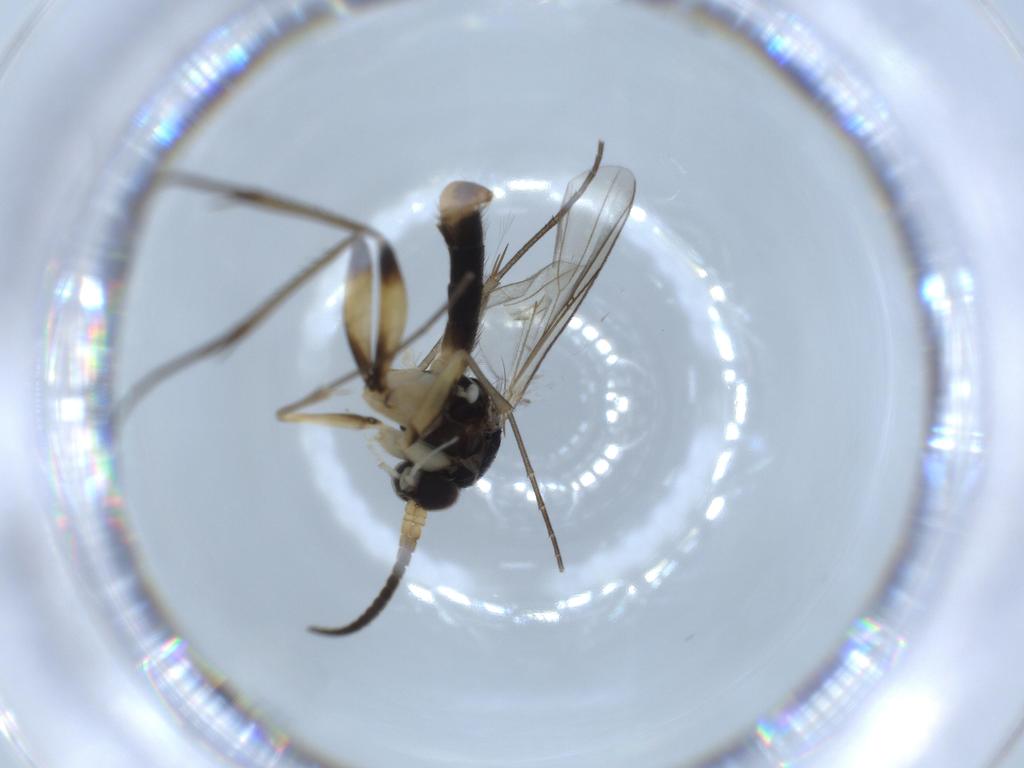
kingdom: Animalia
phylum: Arthropoda
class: Insecta
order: Diptera
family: Mycetophilidae
